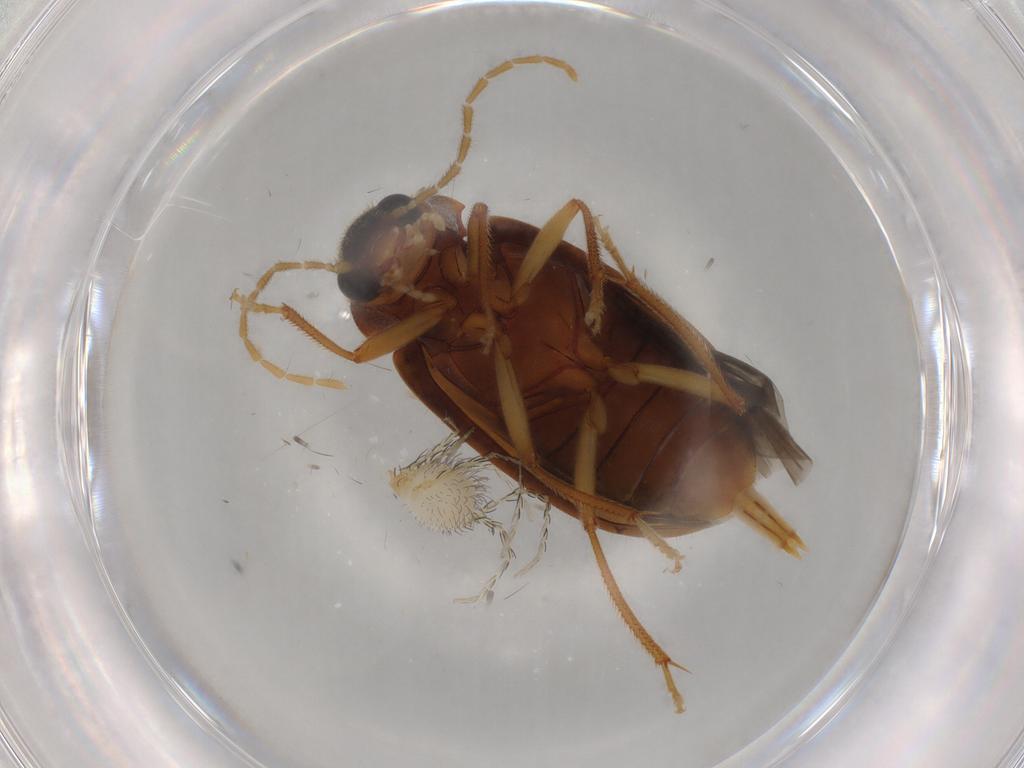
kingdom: Animalia
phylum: Arthropoda
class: Insecta
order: Coleoptera
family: Ptilodactylidae
